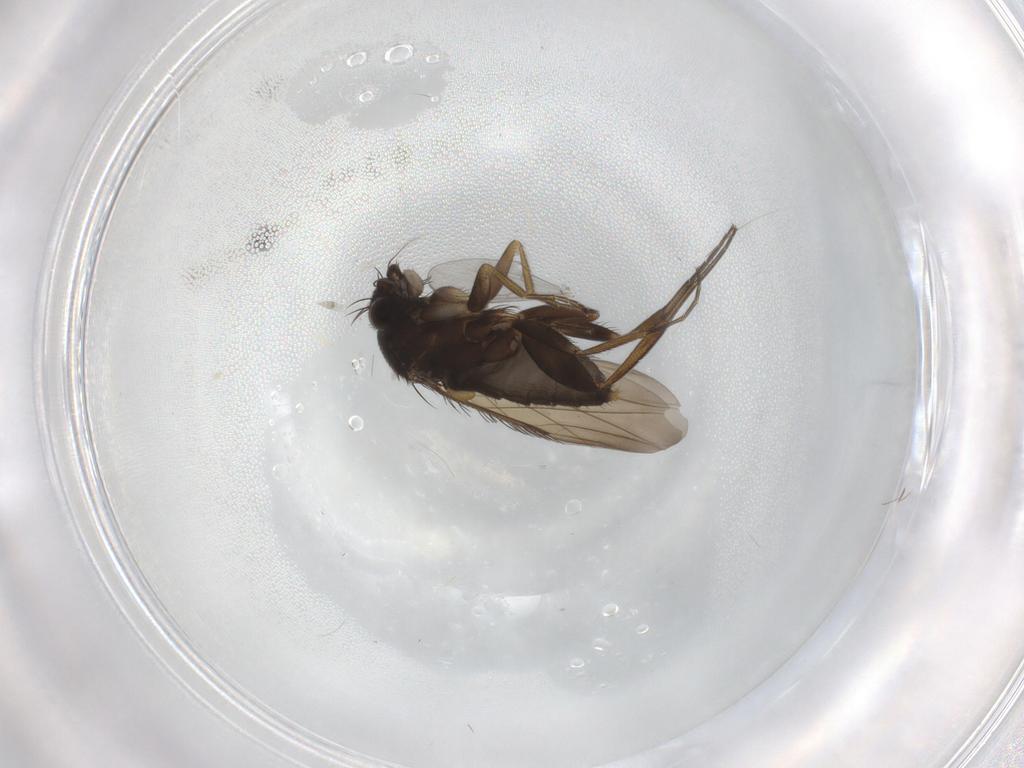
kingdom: Animalia
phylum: Arthropoda
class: Insecta
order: Diptera
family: Phoridae
